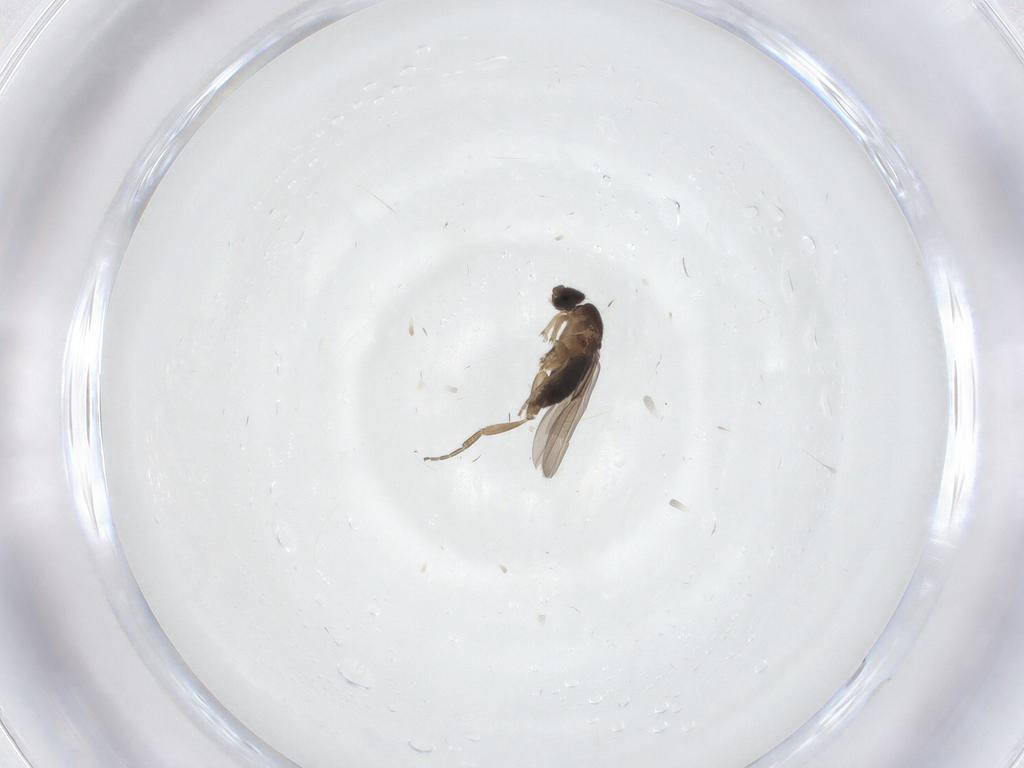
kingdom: Animalia
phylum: Arthropoda
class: Insecta
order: Diptera
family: Phoridae
